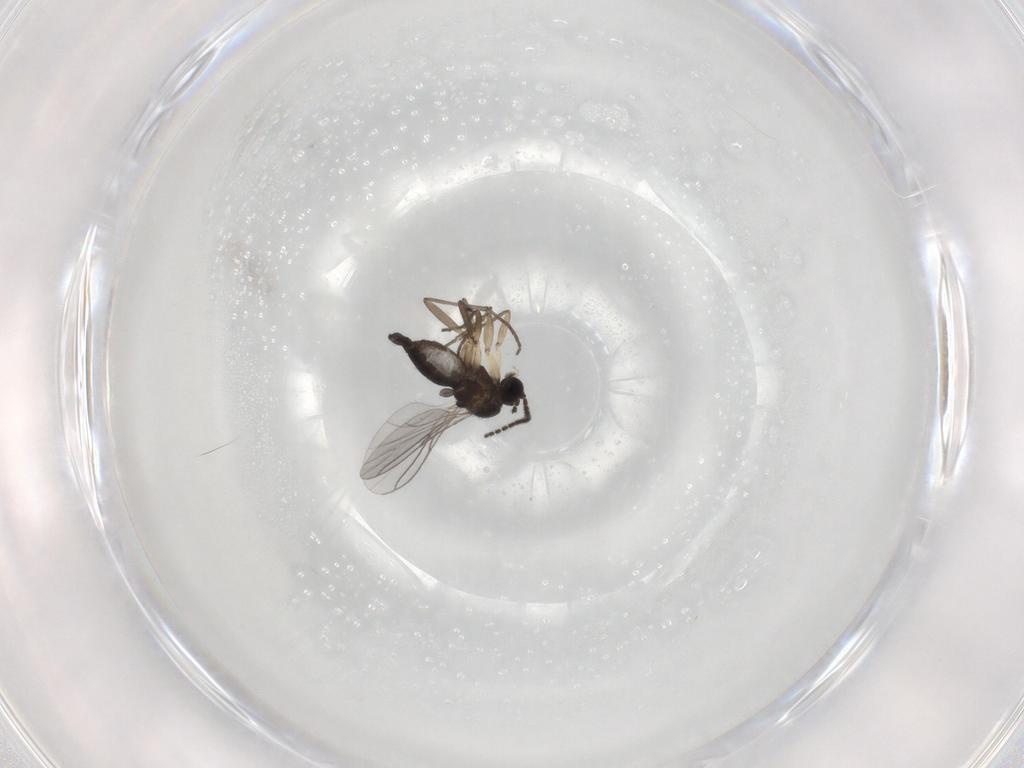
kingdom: Animalia
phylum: Arthropoda
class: Insecta
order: Diptera
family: Sciaridae
